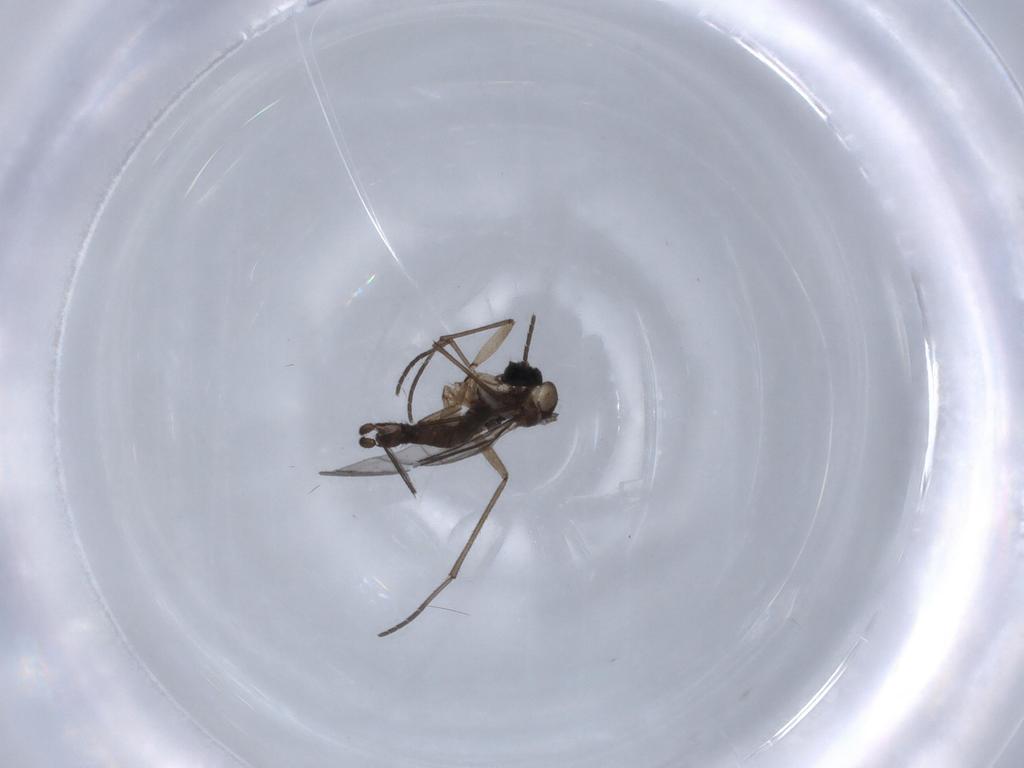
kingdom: Animalia
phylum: Arthropoda
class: Insecta
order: Diptera
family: Sciaridae
